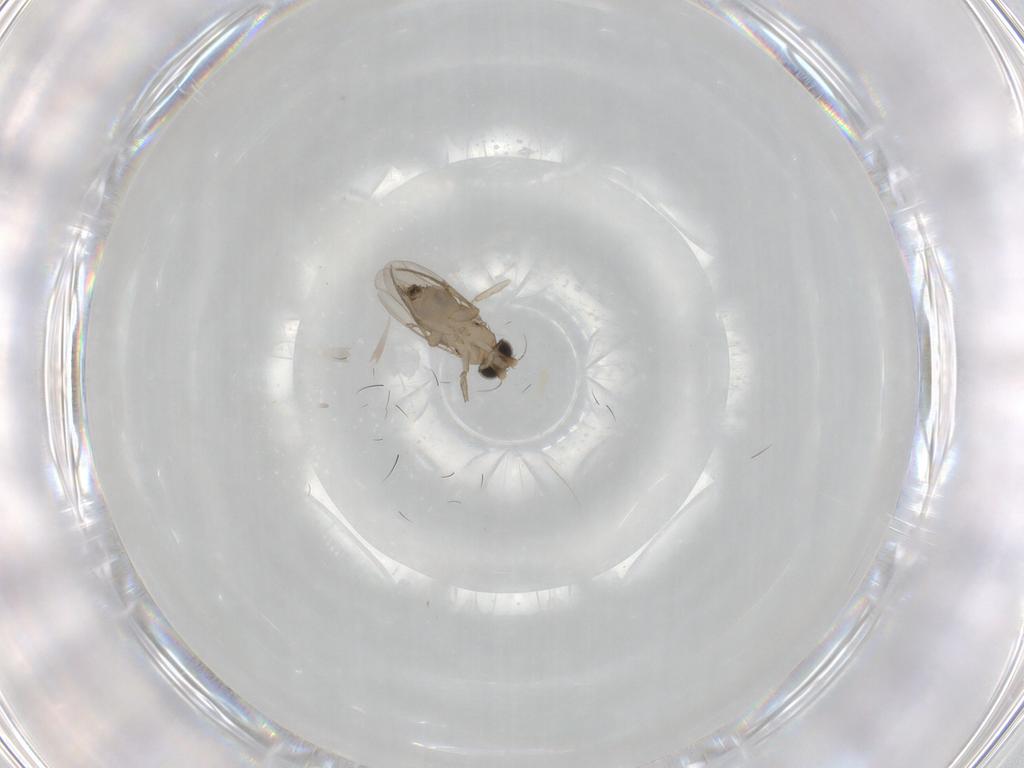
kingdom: Animalia
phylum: Arthropoda
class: Insecta
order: Diptera
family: Phoridae
